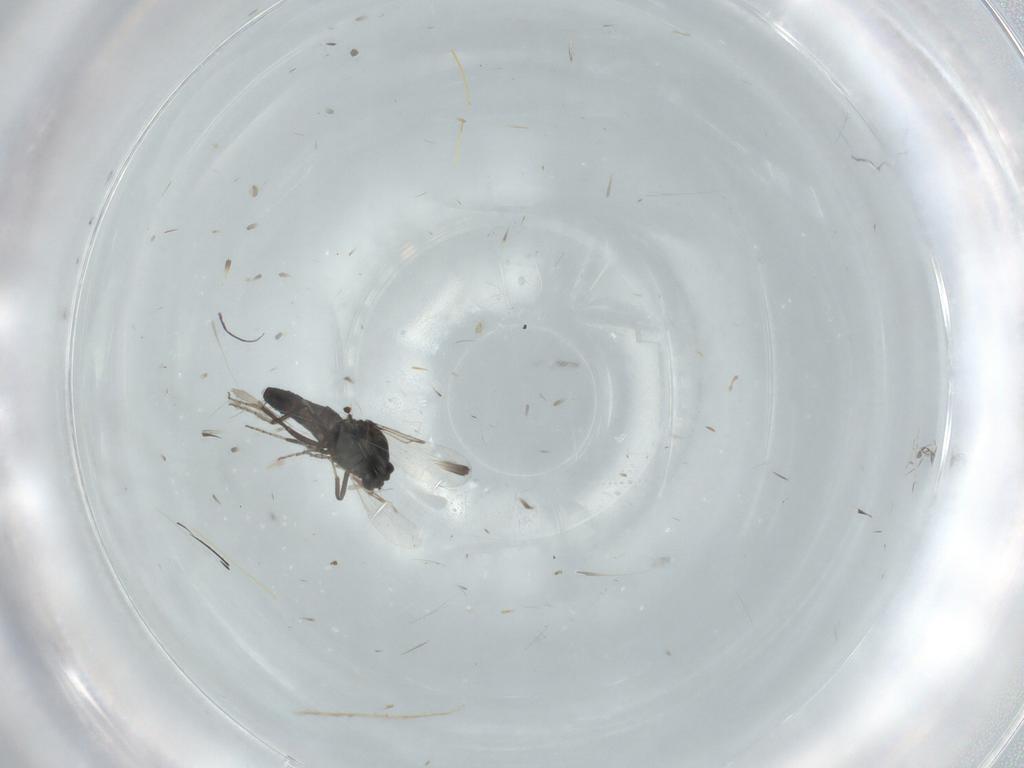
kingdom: Animalia
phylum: Arthropoda
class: Insecta
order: Diptera
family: Ceratopogonidae
